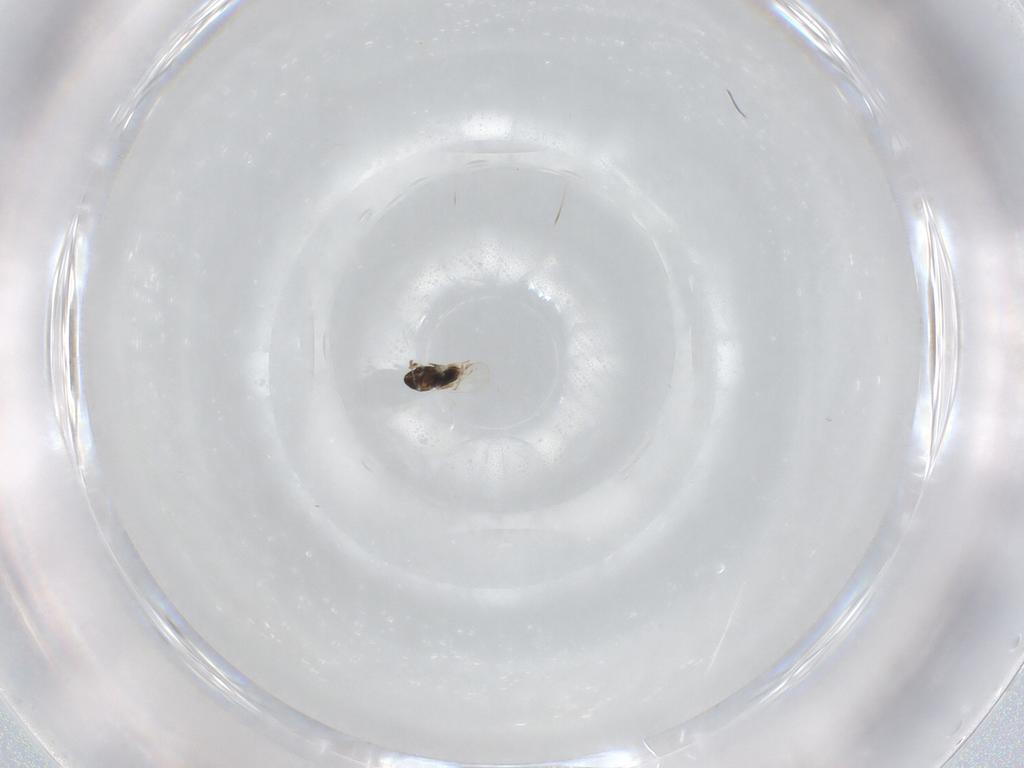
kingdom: Animalia
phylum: Arthropoda
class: Insecta
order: Hymenoptera
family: Aphelinidae
